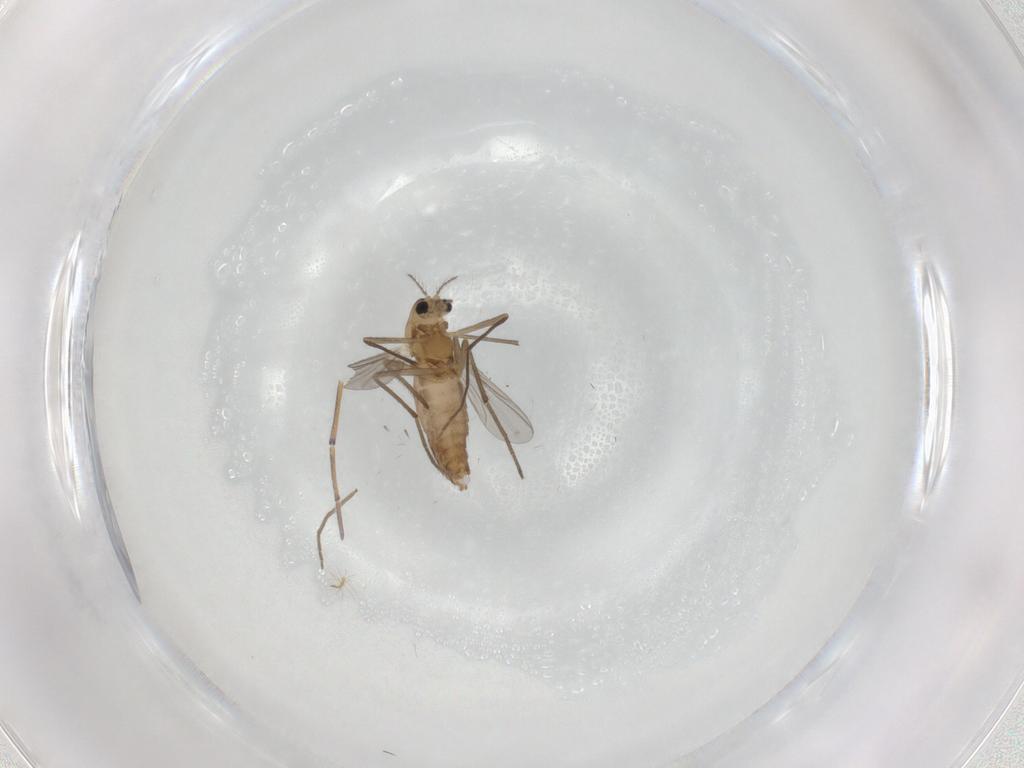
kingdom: Animalia
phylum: Arthropoda
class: Insecta
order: Diptera
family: Chironomidae
